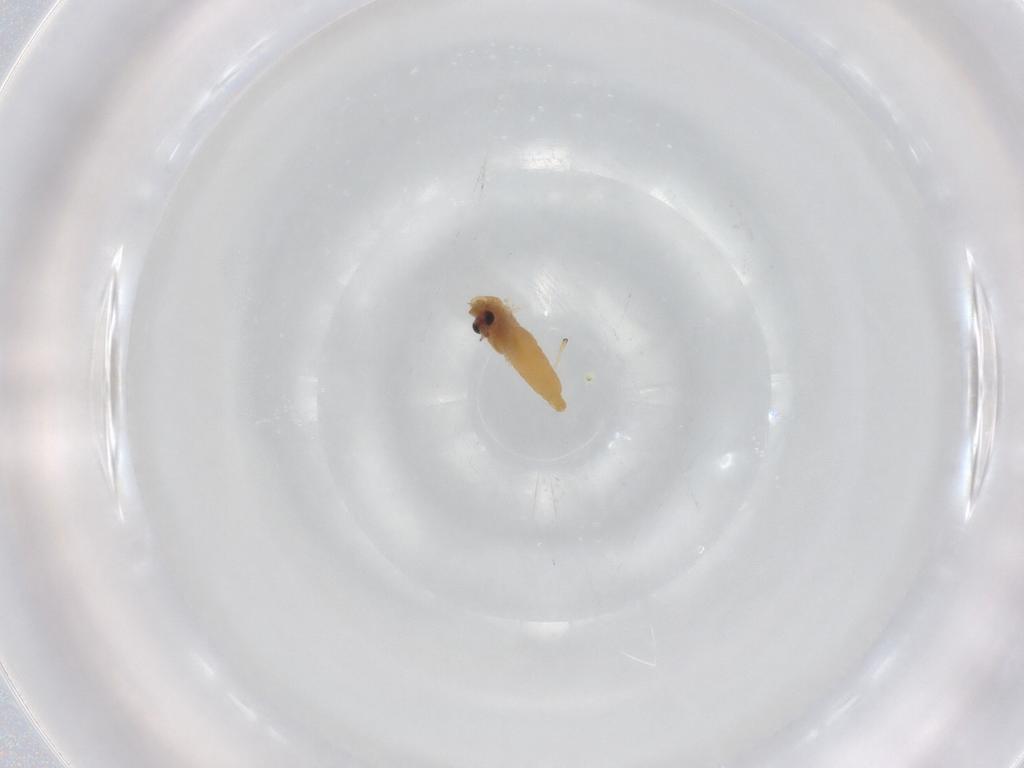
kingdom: Animalia
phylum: Arthropoda
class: Insecta
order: Diptera
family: Chironomidae
